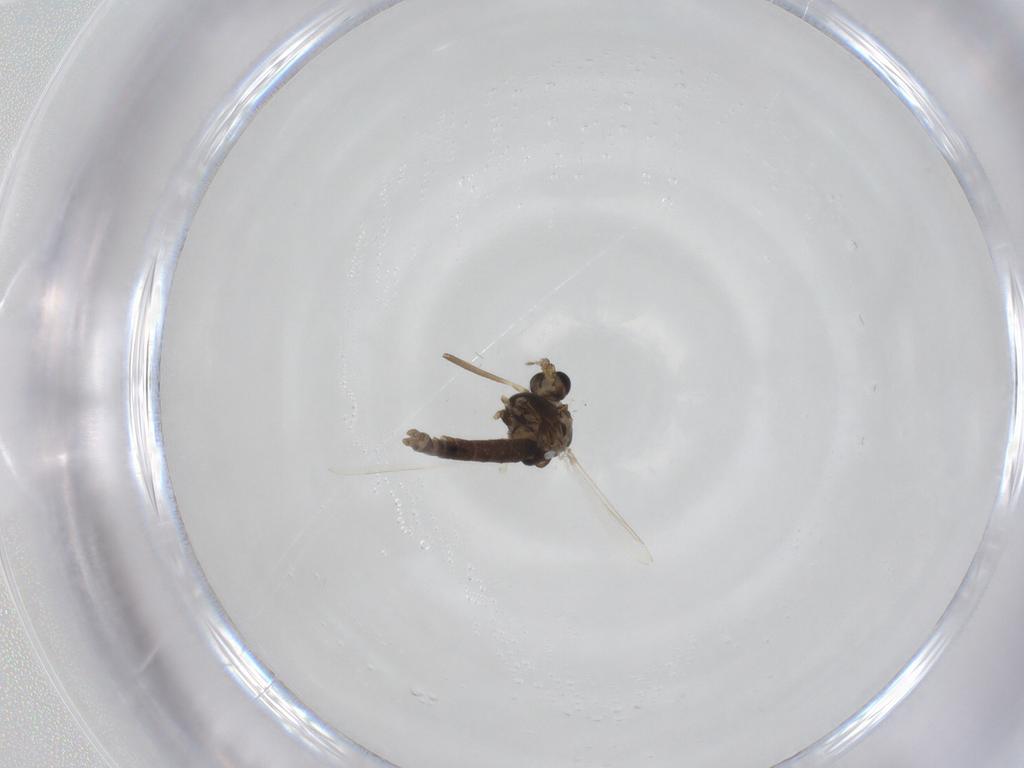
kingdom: Animalia
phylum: Arthropoda
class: Insecta
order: Diptera
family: Chironomidae
